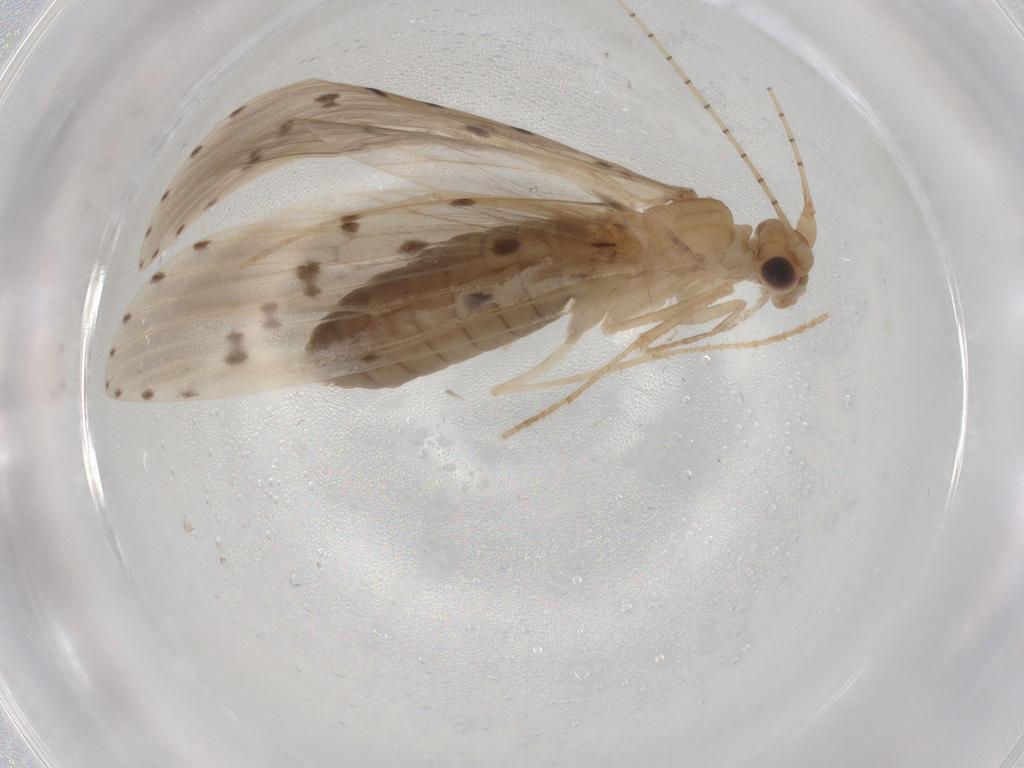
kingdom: Animalia
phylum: Arthropoda
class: Insecta
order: Trichoptera
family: Leptoceridae
